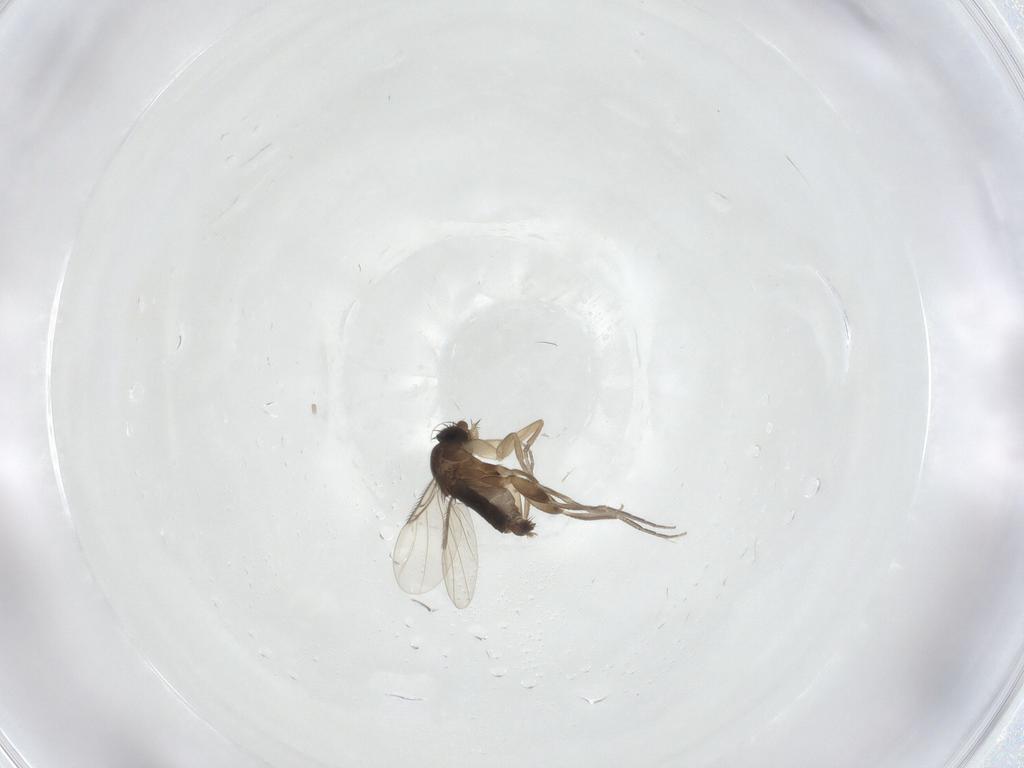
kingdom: Animalia
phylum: Arthropoda
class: Insecta
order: Diptera
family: Phoridae
